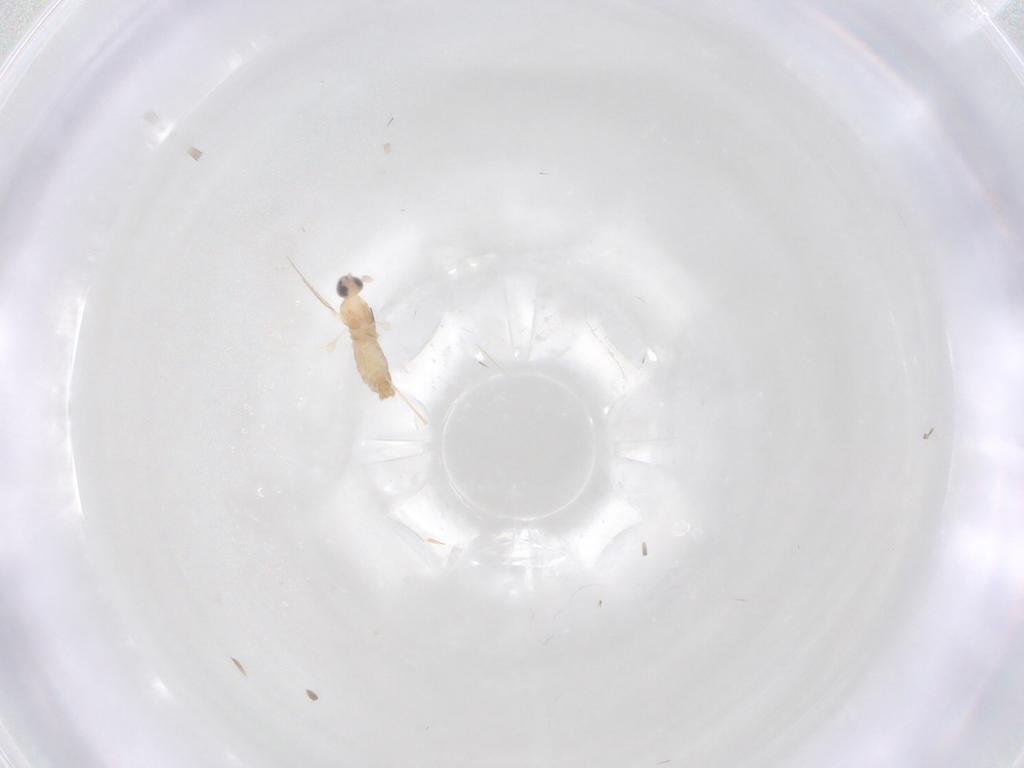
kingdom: Animalia
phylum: Arthropoda
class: Insecta
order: Diptera
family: Cecidomyiidae
